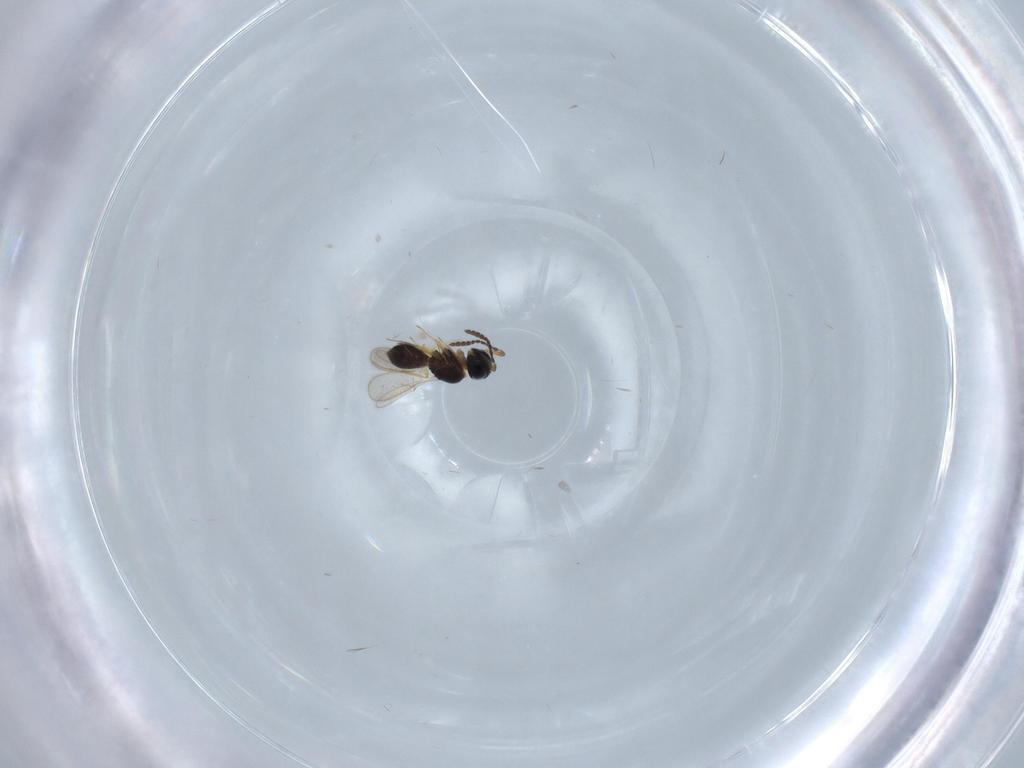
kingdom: Animalia
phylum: Arthropoda
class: Insecta
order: Hymenoptera
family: Scelionidae
